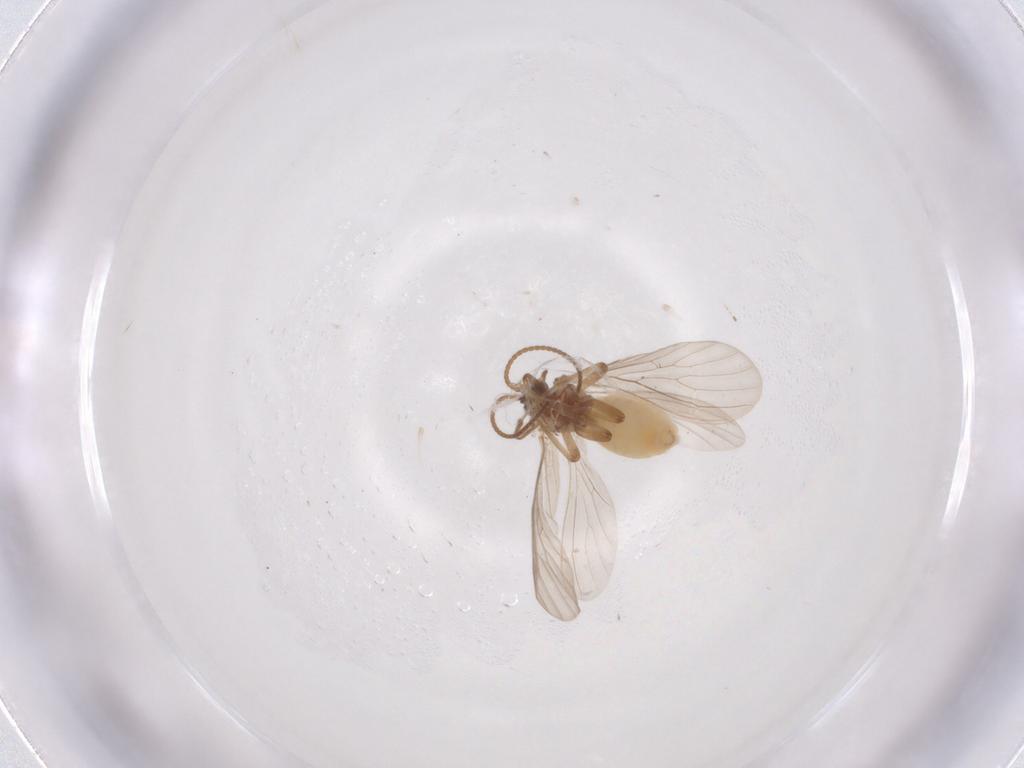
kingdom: Animalia
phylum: Arthropoda
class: Insecta
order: Neuroptera
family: Coniopterygidae
